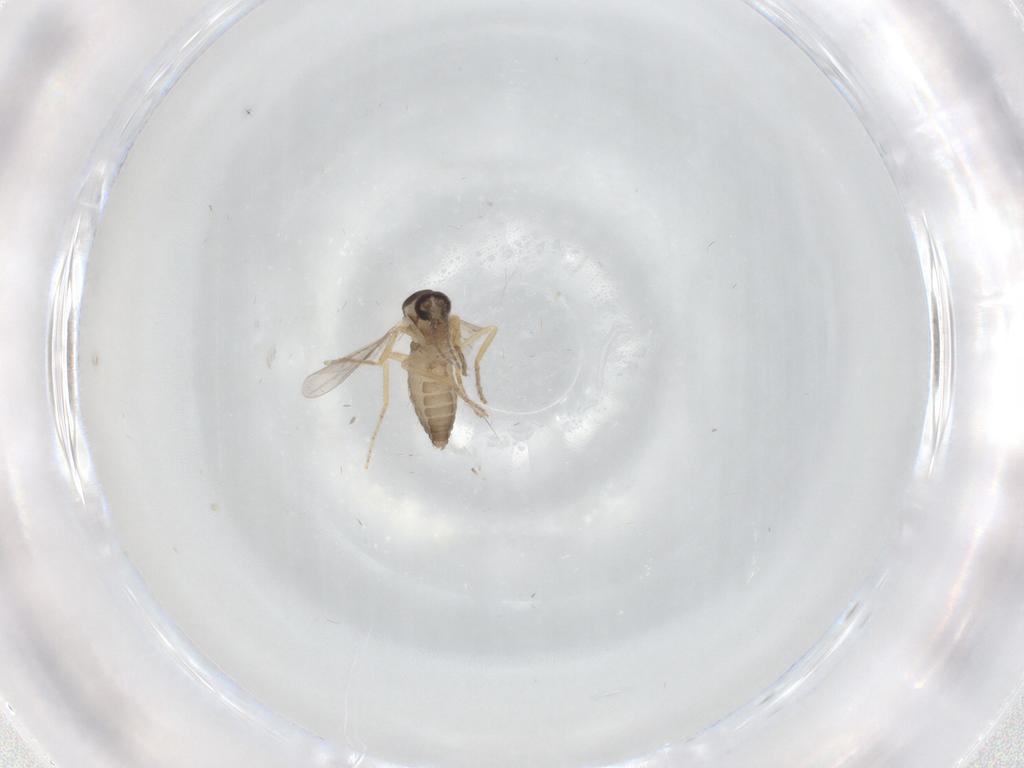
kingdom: Animalia
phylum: Arthropoda
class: Insecta
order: Diptera
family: Ceratopogonidae
